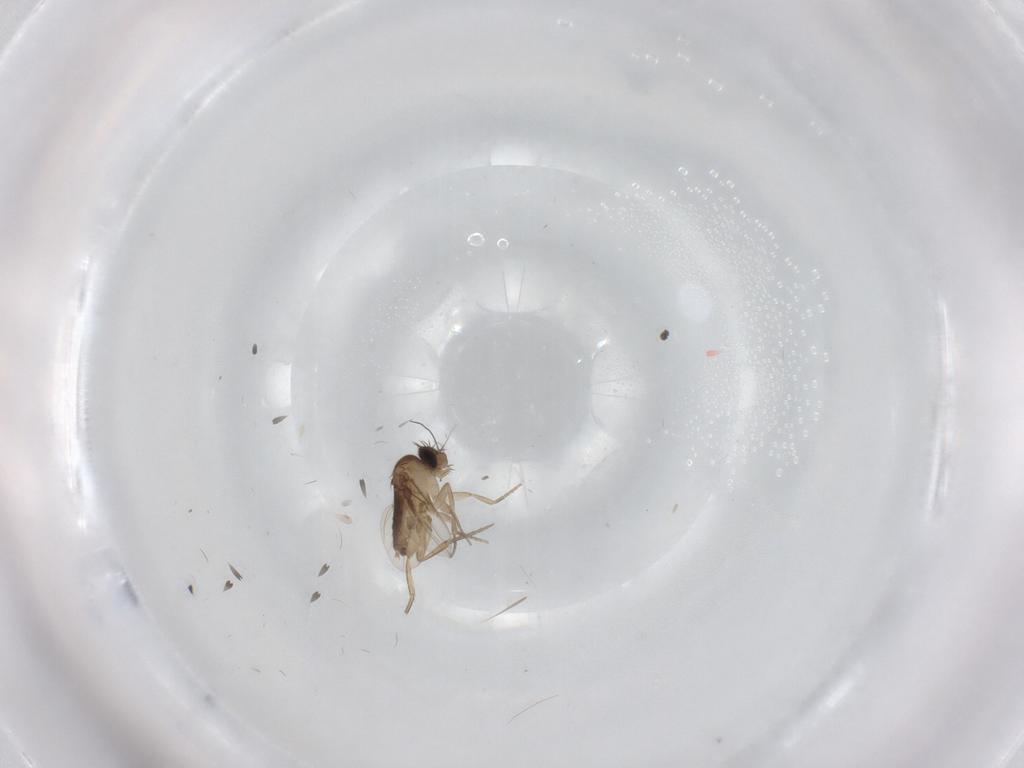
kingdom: Animalia
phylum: Arthropoda
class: Insecta
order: Diptera
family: Phoridae
